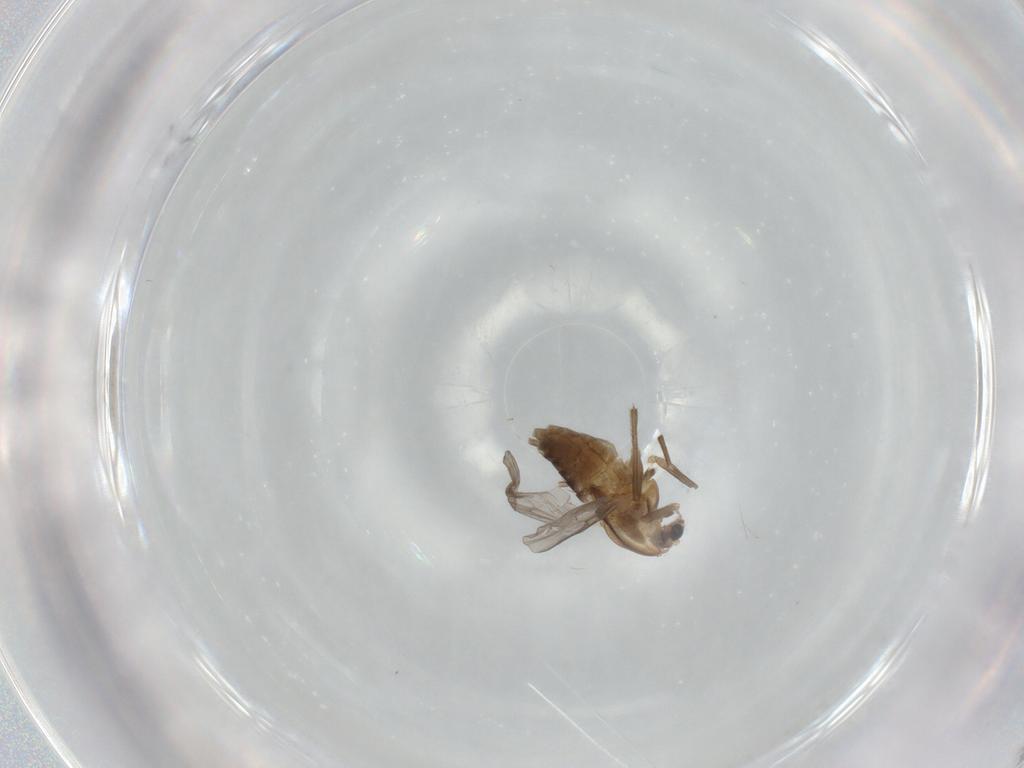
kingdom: Animalia
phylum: Arthropoda
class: Insecta
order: Diptera
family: Chironomidae
